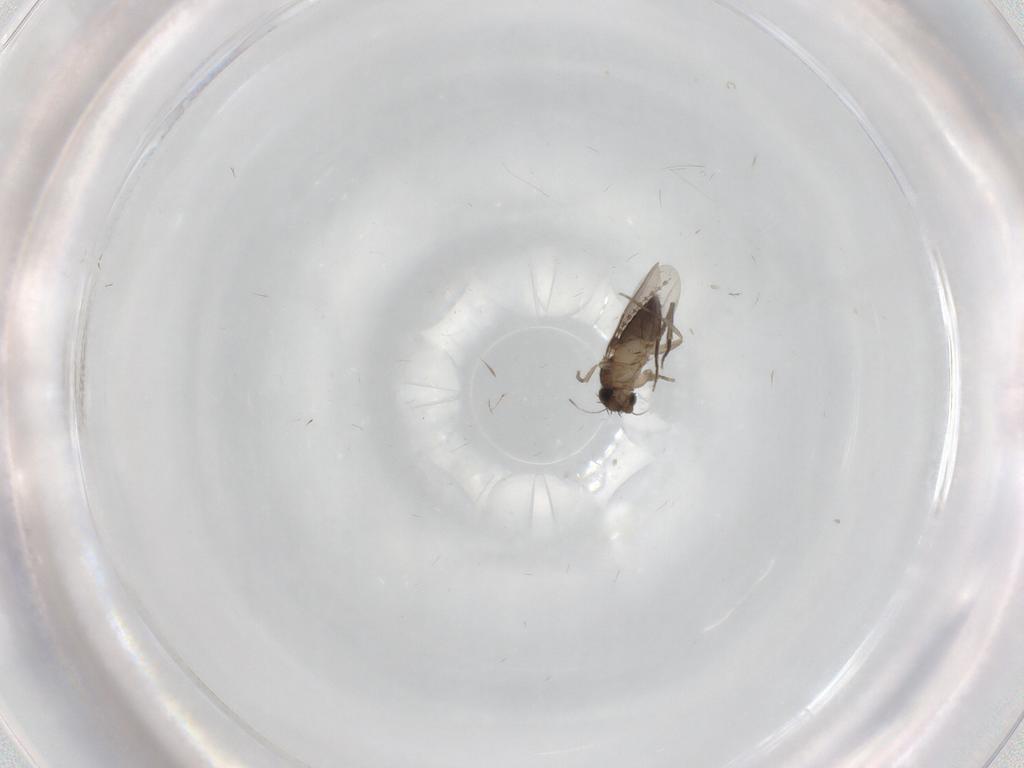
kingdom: Animalia
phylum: Arthropoda
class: Insecta
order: Diptera
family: Phoridae
